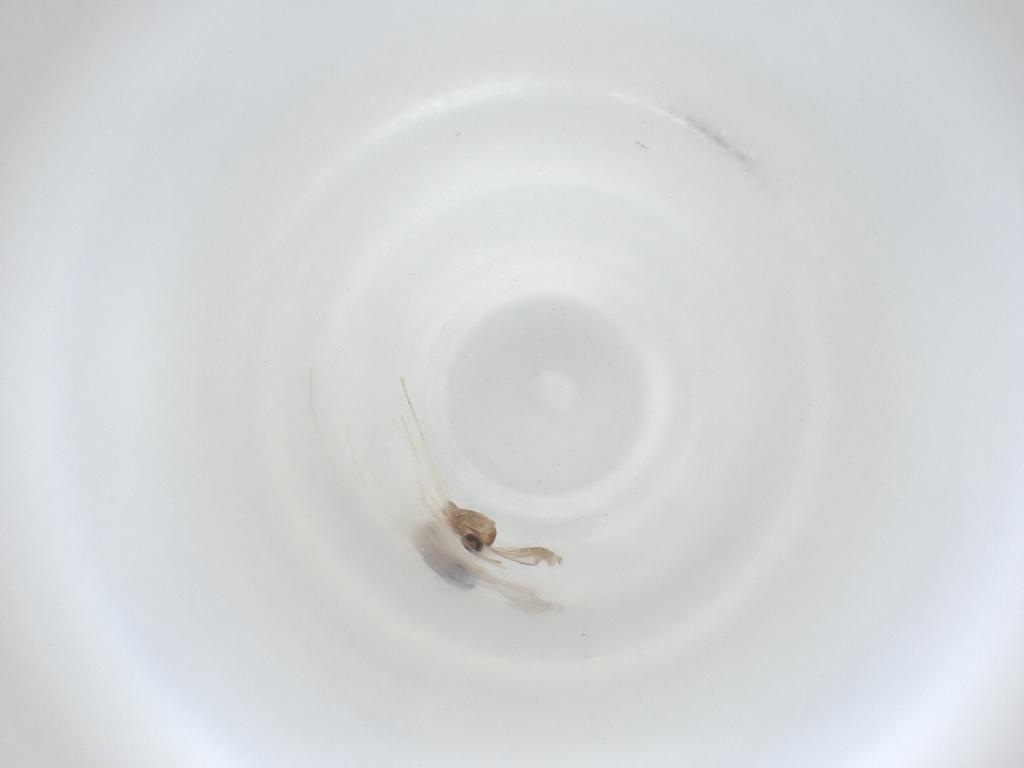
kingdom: Animalia
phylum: Arthropoda
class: Insecta
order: Diptera
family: Cecidomyiidae
